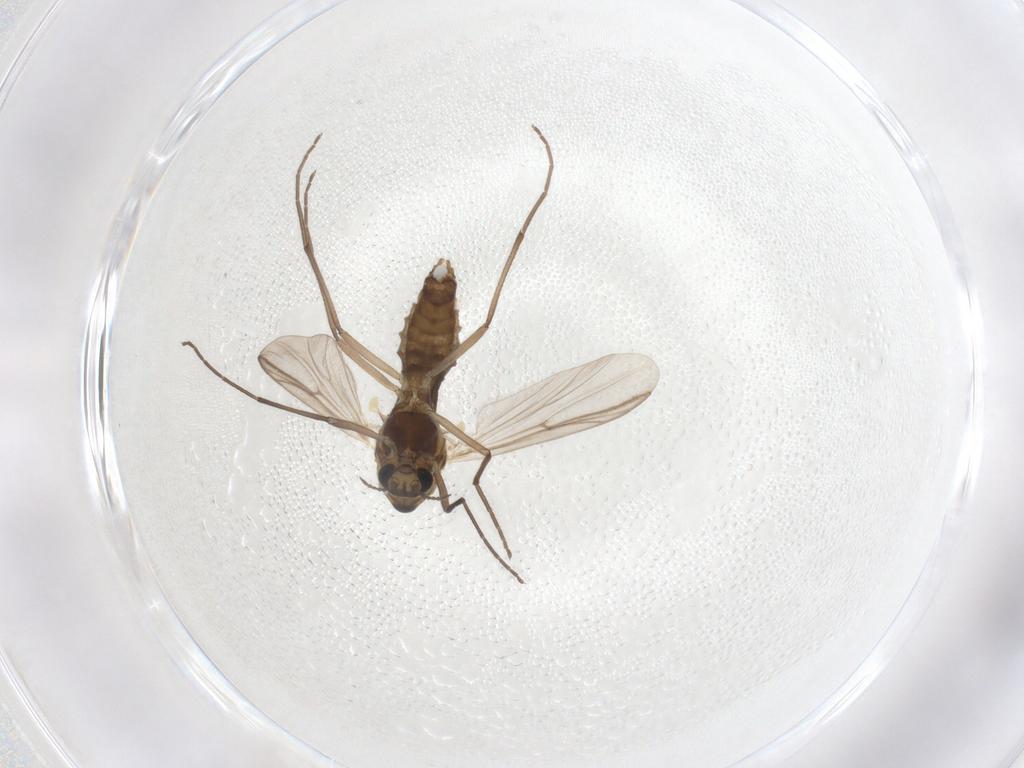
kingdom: Animalia
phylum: Arthropoda
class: Insecta
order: Diptera
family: Chironomidae
